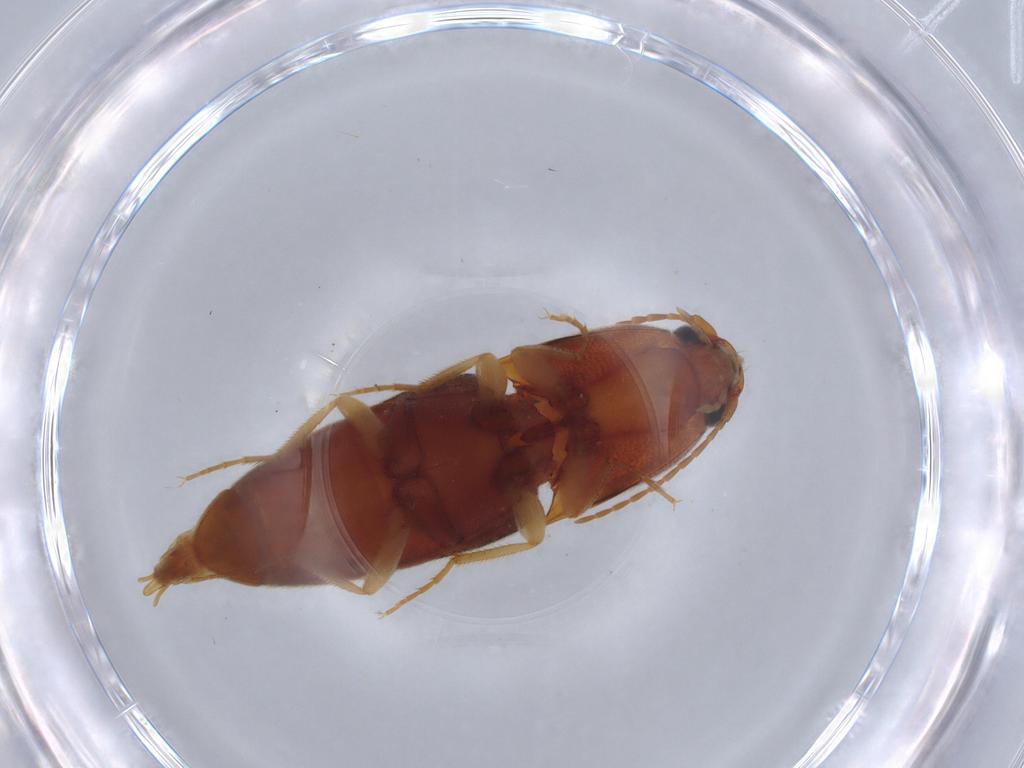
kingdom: Animalia
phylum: Arthropoda
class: Insecta
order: Coleoptera
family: Elateridae
